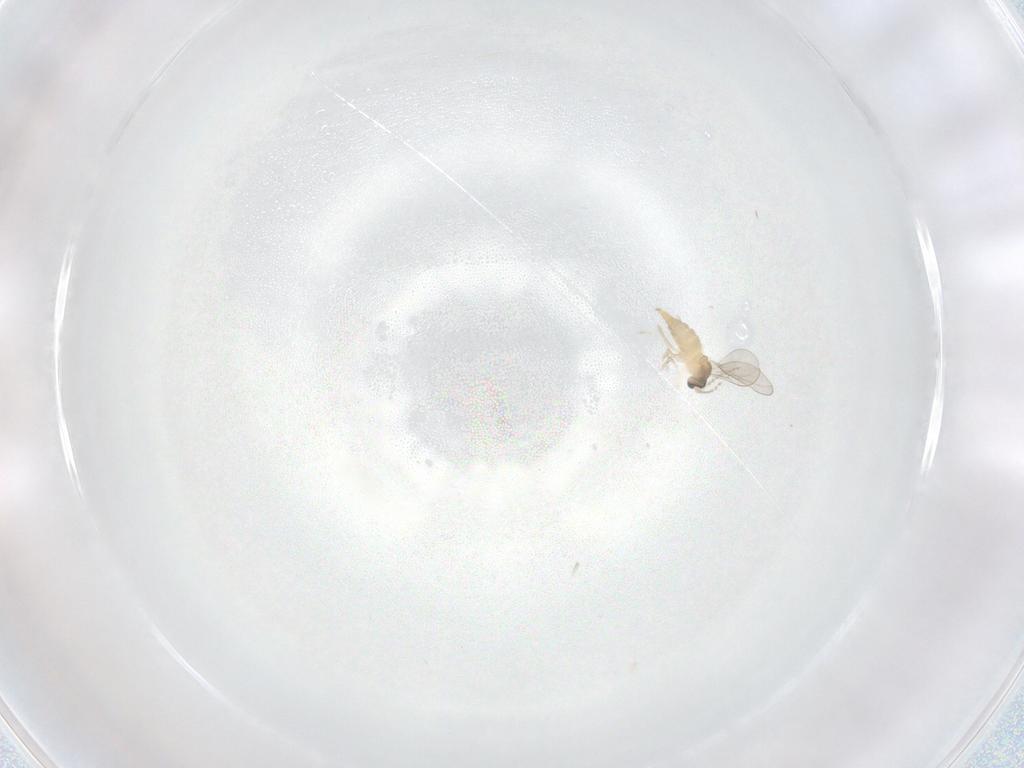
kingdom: Animalia
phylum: Arthropoda
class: Insecta
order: Diptera
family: Cecidomyiidae
